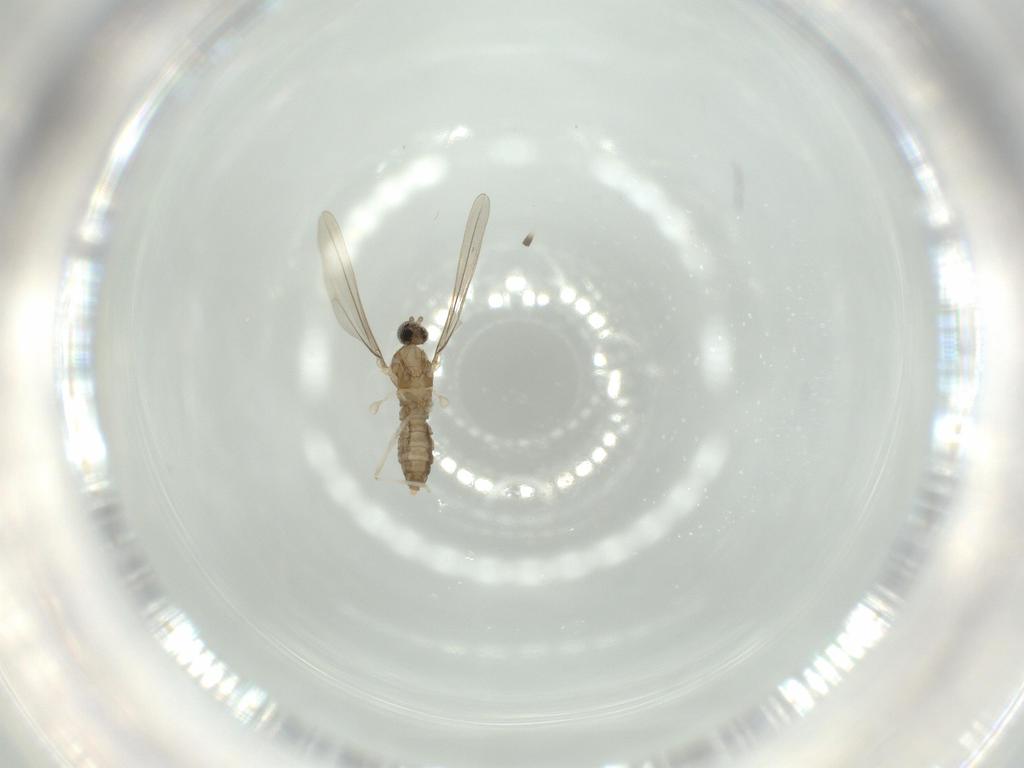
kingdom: Animalia
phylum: Arthropoda
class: Insecta
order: Diptera
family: Cecidomyiidae
